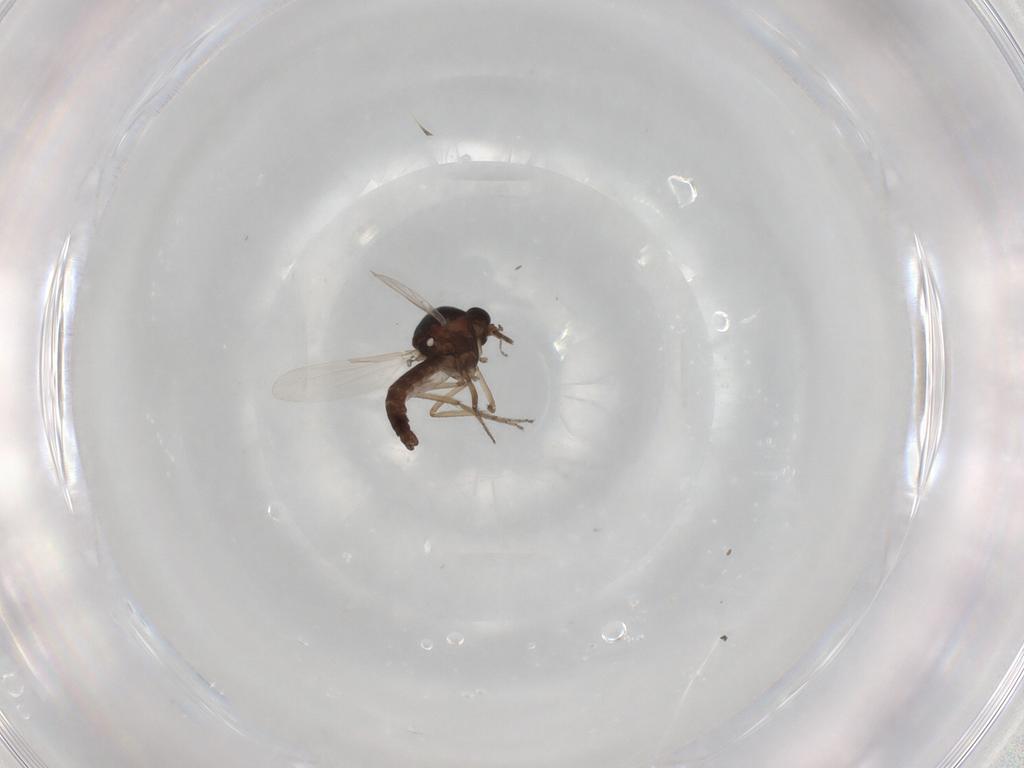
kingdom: Animalia
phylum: Arthropoda
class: Insecta
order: Diptera
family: Ceratopogonidae
